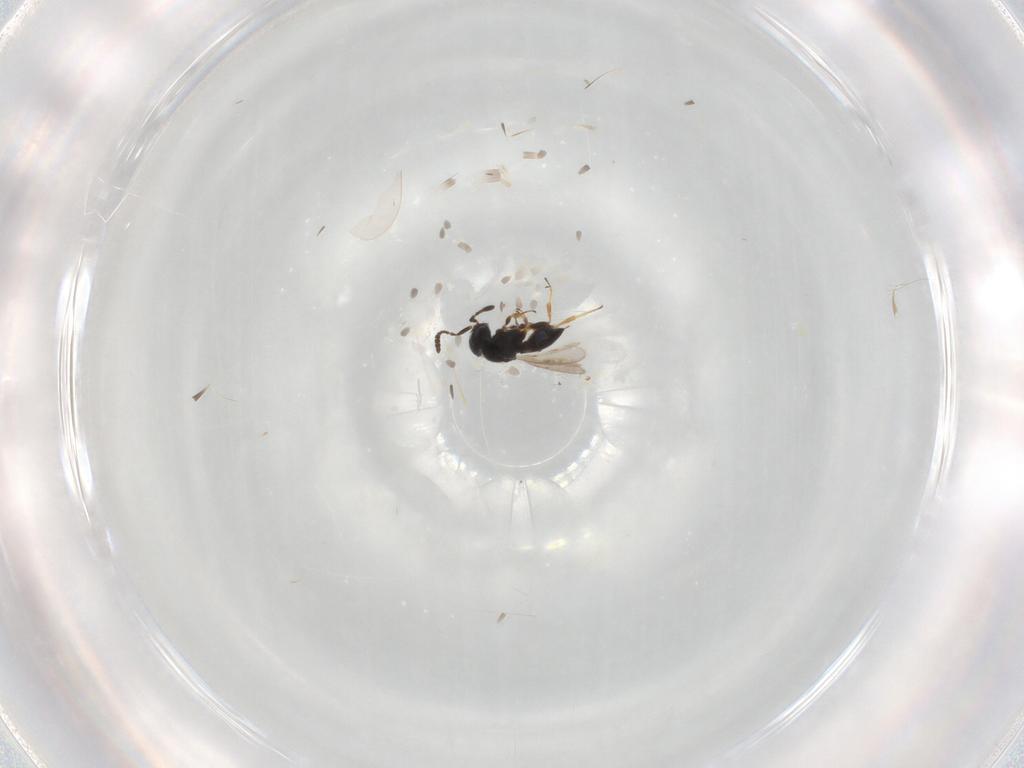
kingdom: Animalia
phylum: Arthropoda
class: Insecta
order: Hymenoptera
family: Scelionidae
